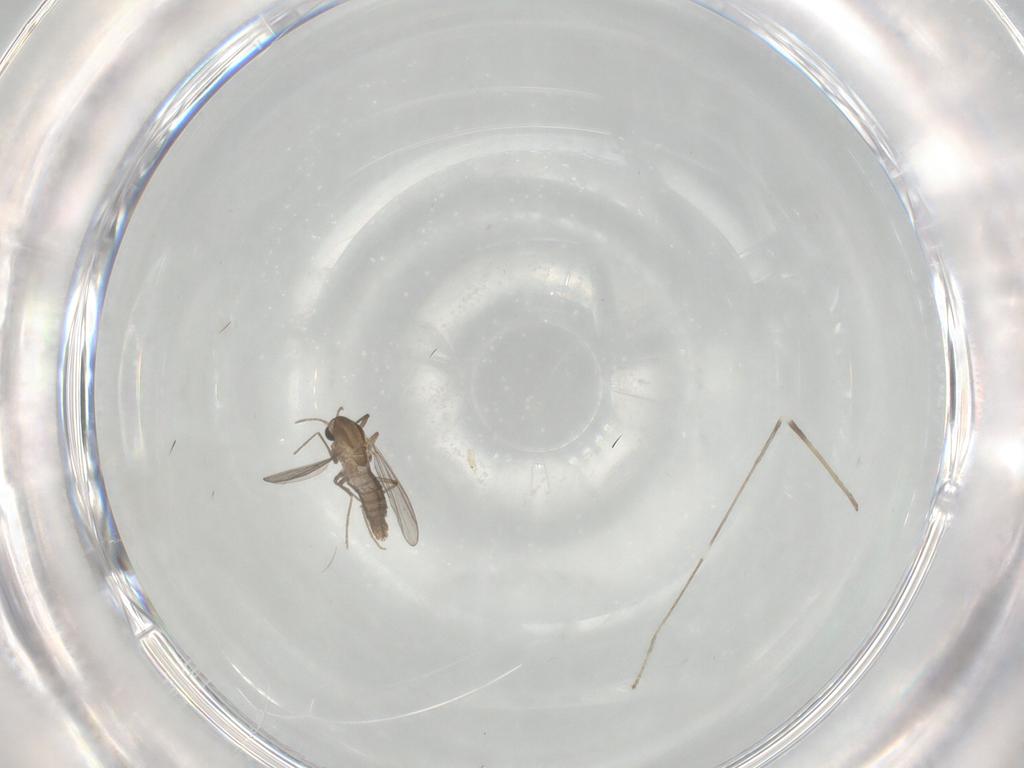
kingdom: Animalia
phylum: Arthropoda
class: Insecta
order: Diptera
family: Limoniidae
